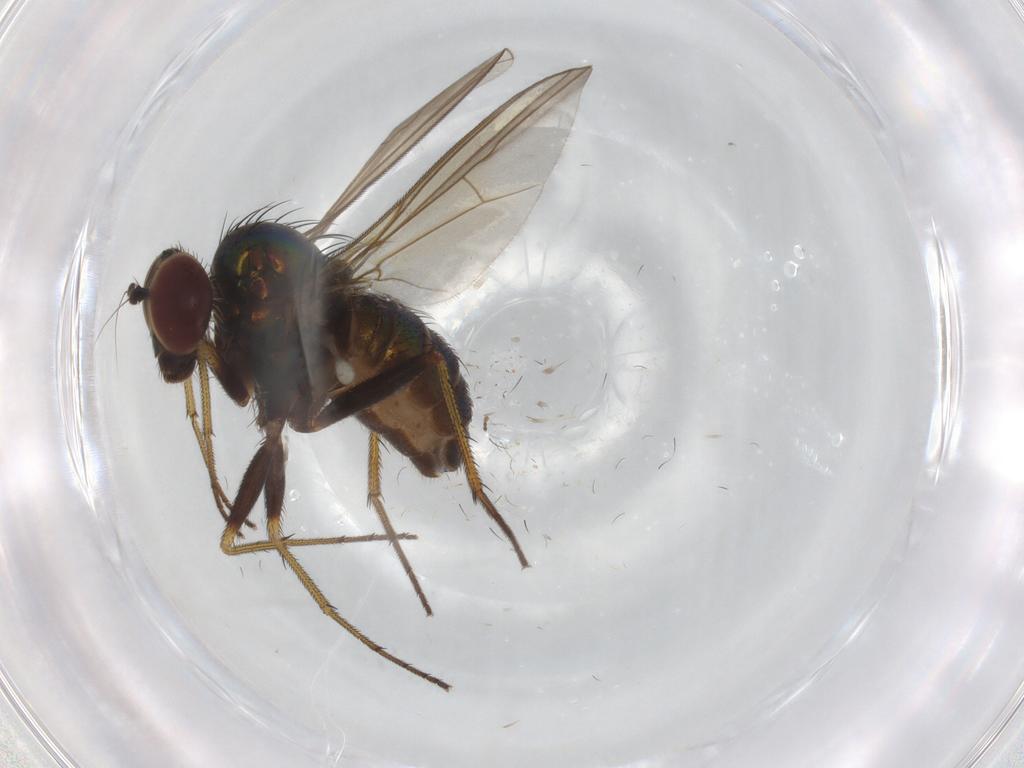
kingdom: Animalia
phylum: Arthropoda
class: Insecta
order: Diptera
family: Dolichopodidae
